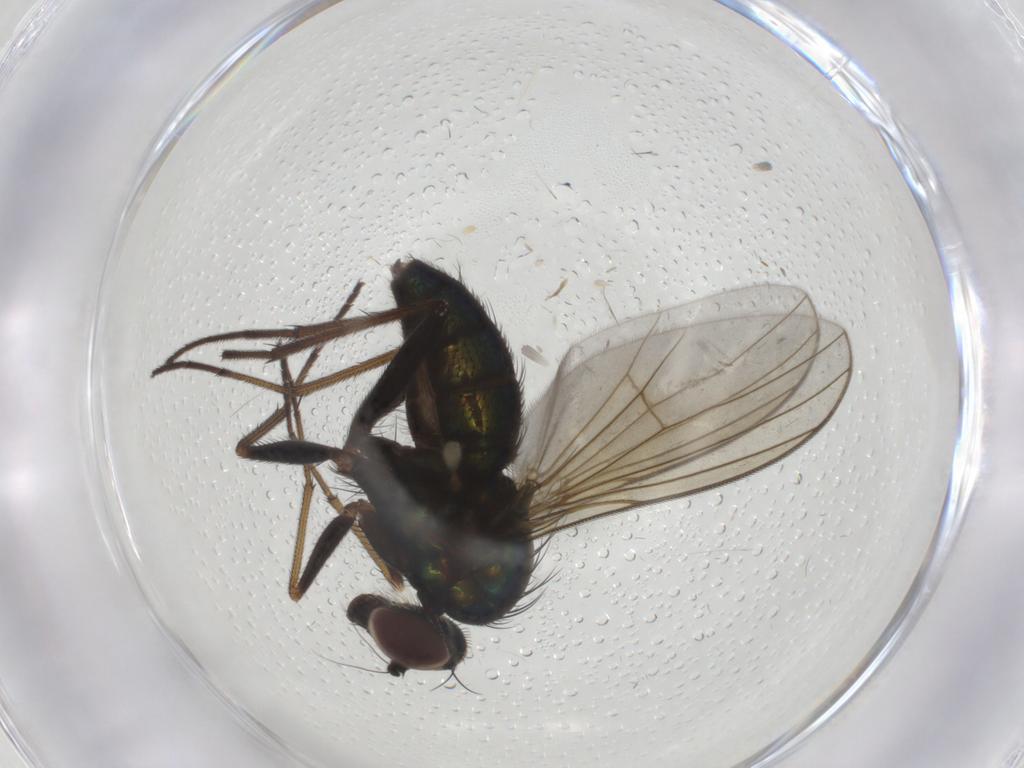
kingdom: Animalia
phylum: Arthropoda
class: Insecta
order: Diptera
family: Dolichopodidae
